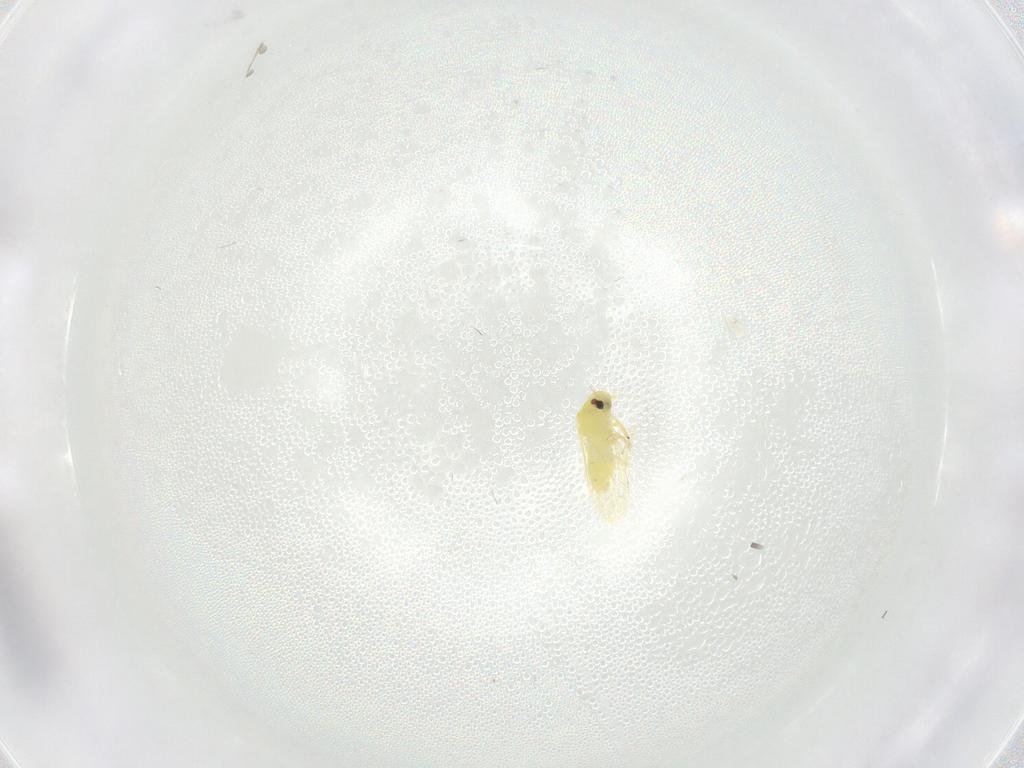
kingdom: Animalia
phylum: Arthropoda
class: Insecta
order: Hemiptera
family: Aleyrodidae
